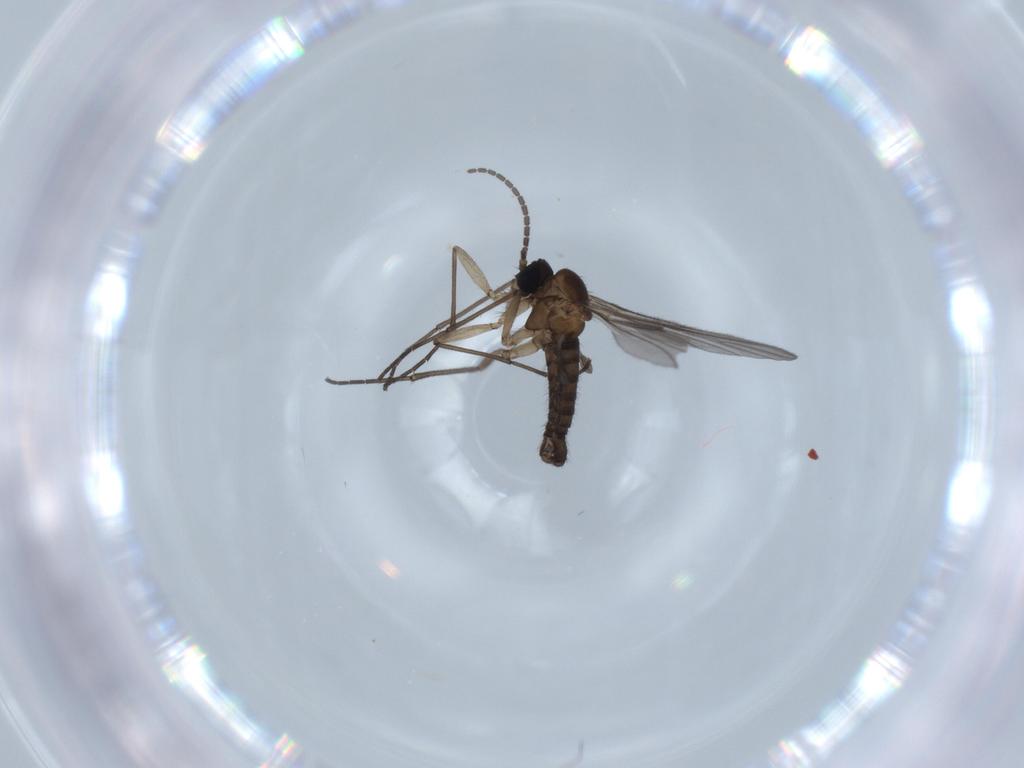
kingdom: Animalia
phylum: Arthropoda
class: Insecta
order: Diptera
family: Sciaridae
